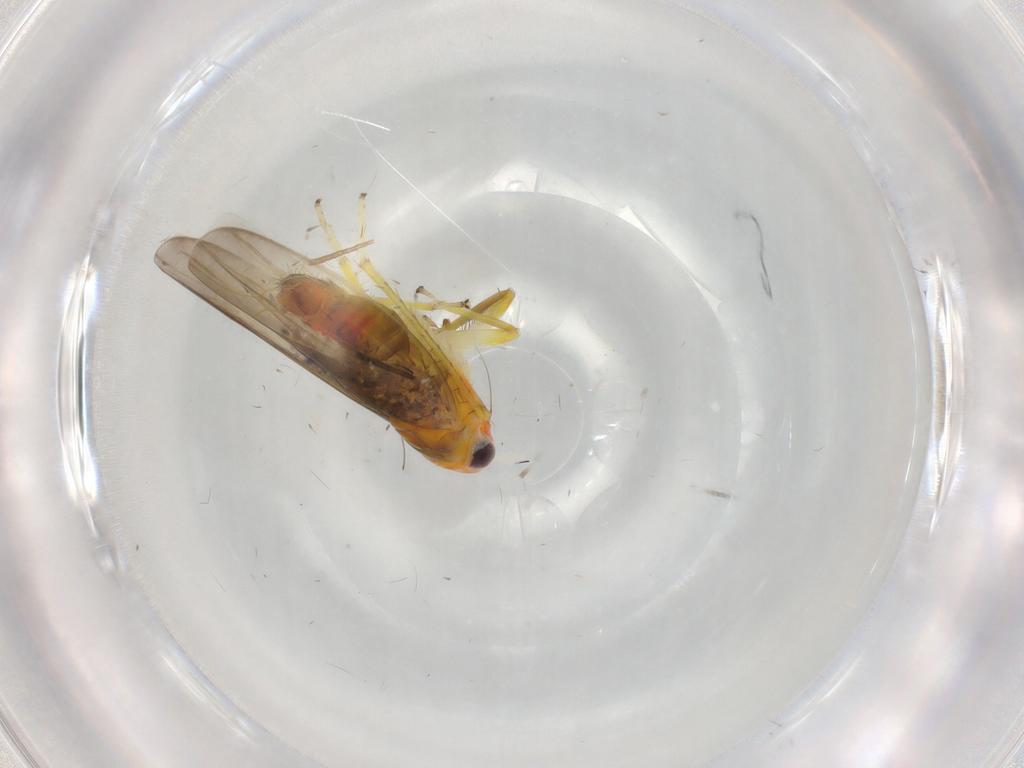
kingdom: Animalia
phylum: Arthropoda
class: Insecta
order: Hemiptera
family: Aphididae
